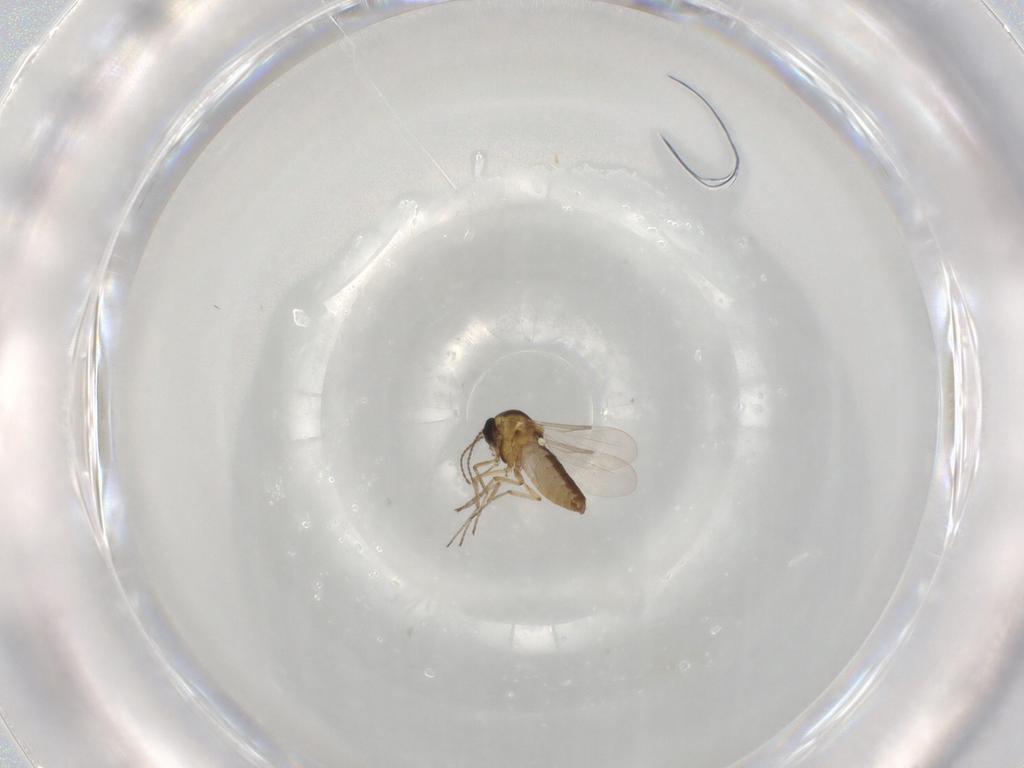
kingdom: Animalia
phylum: Arthropoda
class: Insecta
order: Diptera
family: Ceratopogonidae
